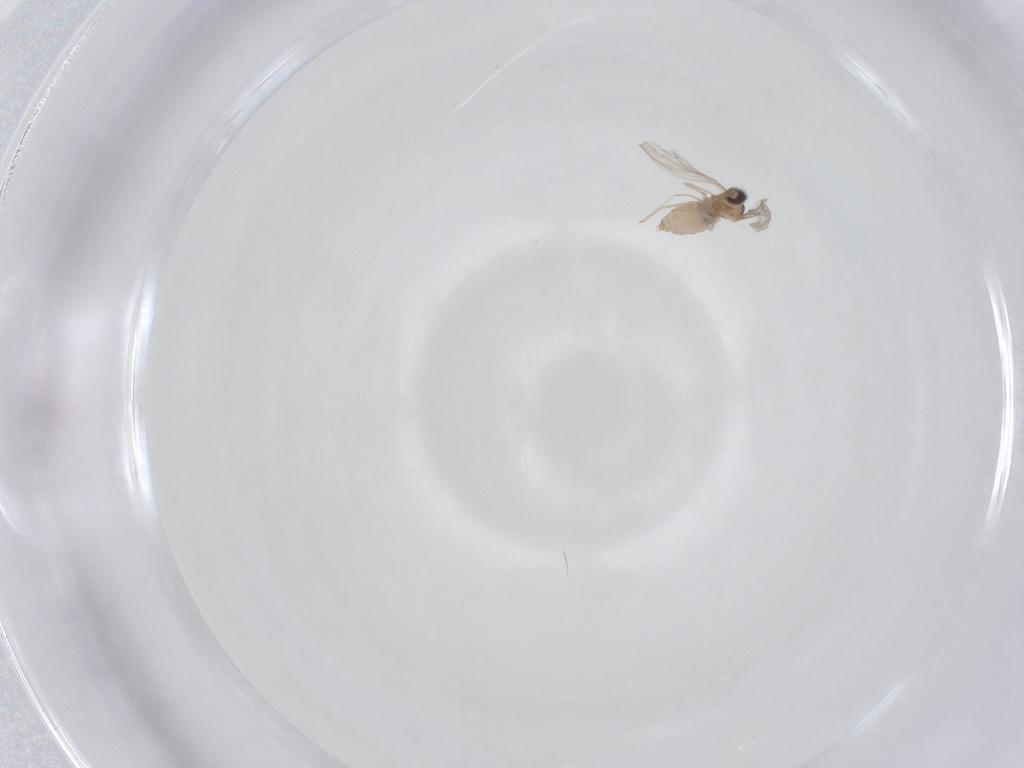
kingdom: Animalia
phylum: Arthropoda
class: Insecta
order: Diptera
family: Cecidomyiidae
